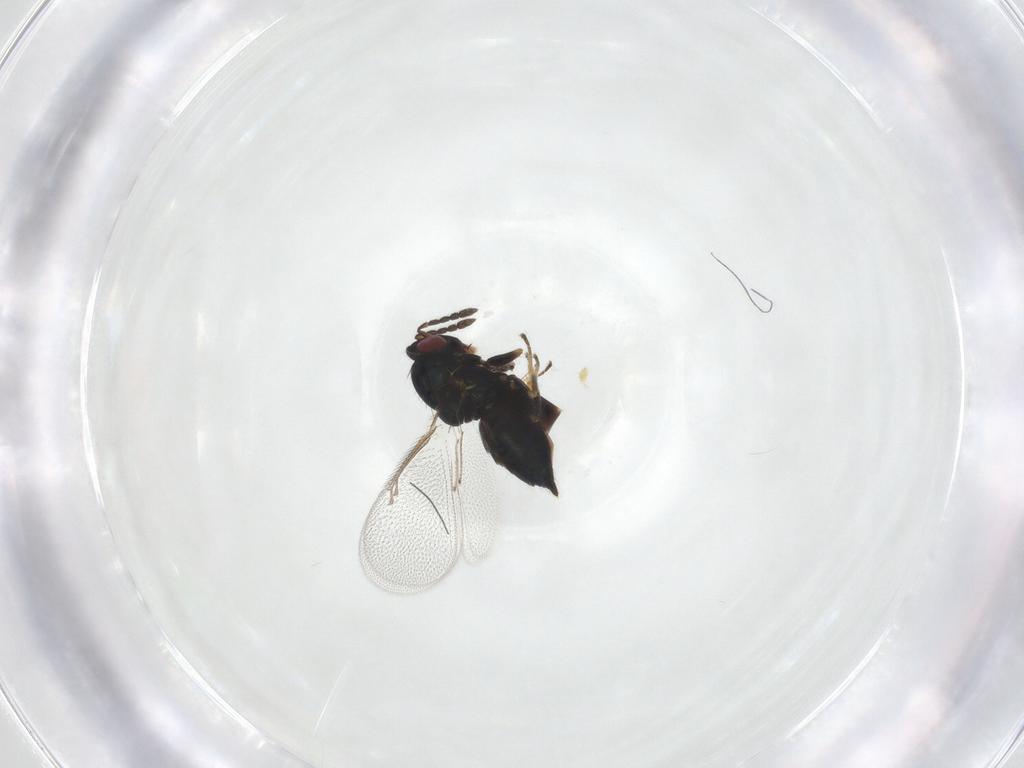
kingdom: Animalia
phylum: Arthropoda
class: Insecta
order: Hymenoptera
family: Eulophidae
